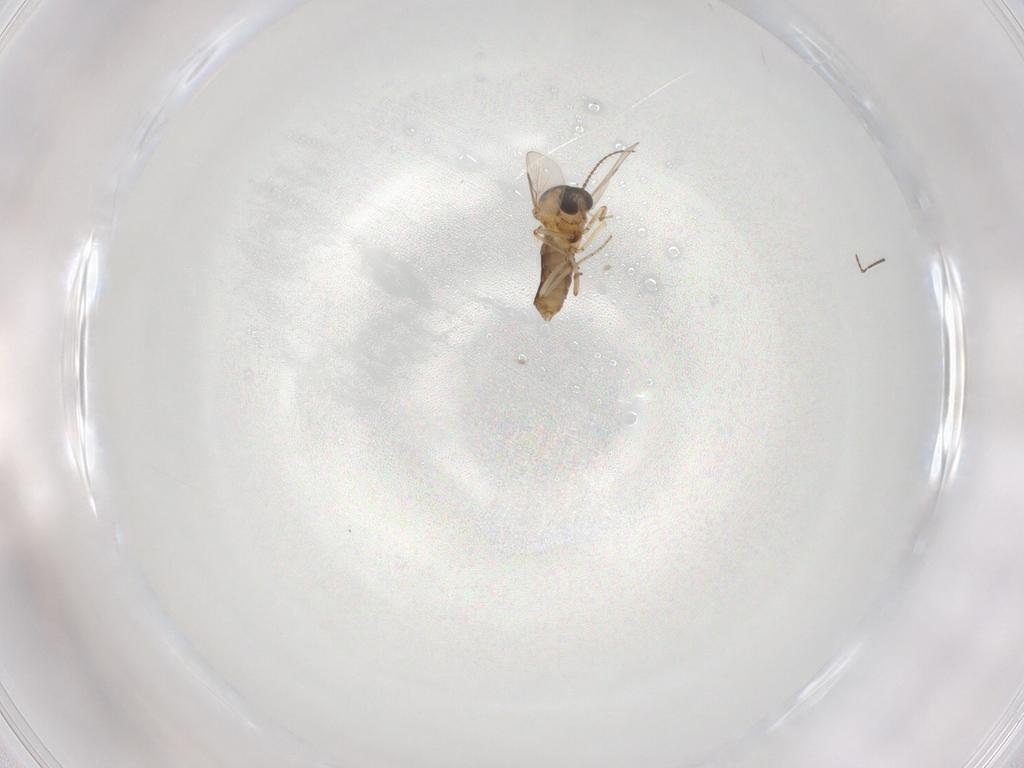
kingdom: Animalia
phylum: Arthropoda
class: Insecta
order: Diptera
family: Ceratopogonidae
